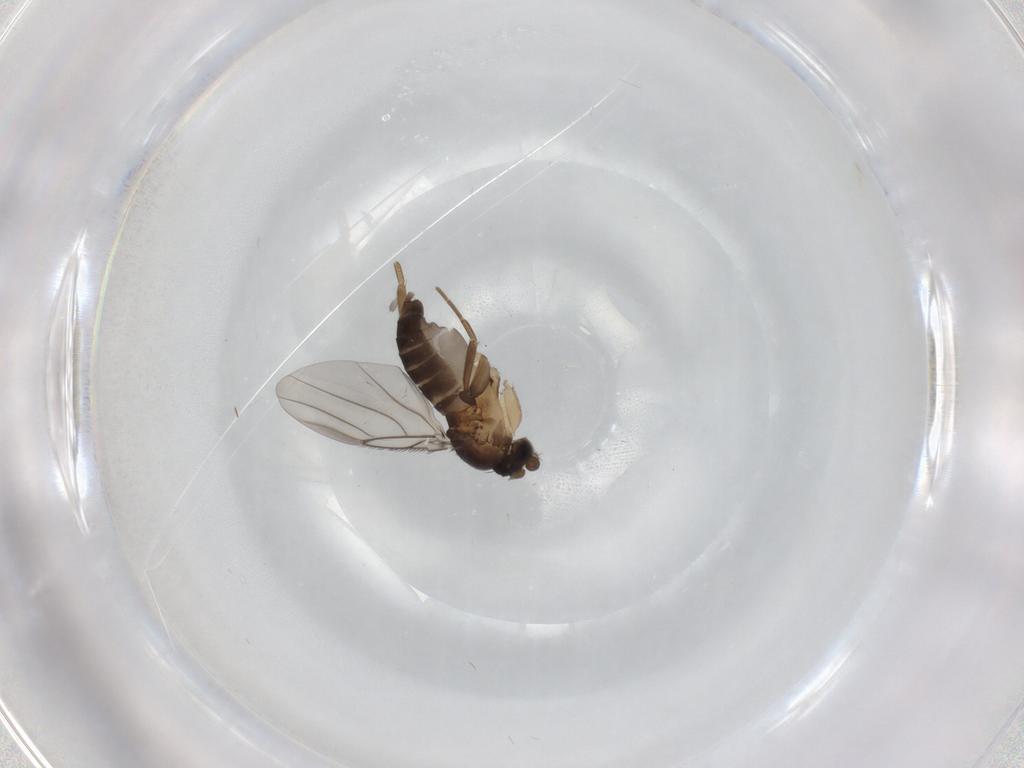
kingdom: Animalia
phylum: Arthropoda
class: Insecta
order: Diptera
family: Phoridae
